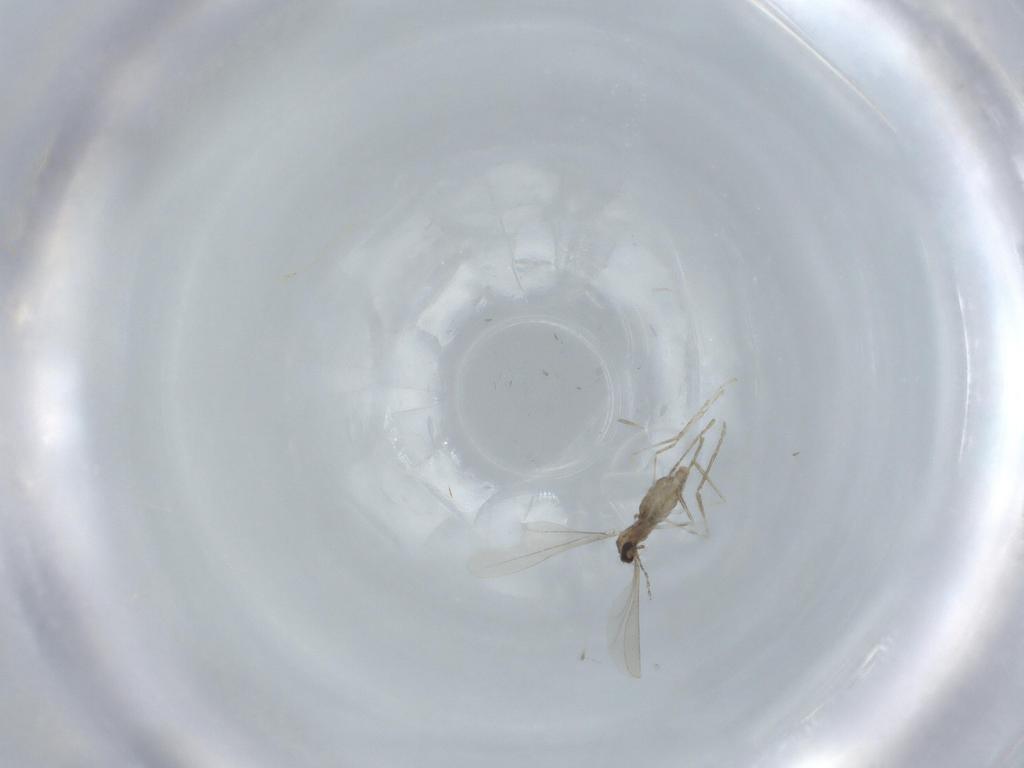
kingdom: Animalia
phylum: Arthropoda
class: Insecta
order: Diptera
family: Cecidomyiidae
